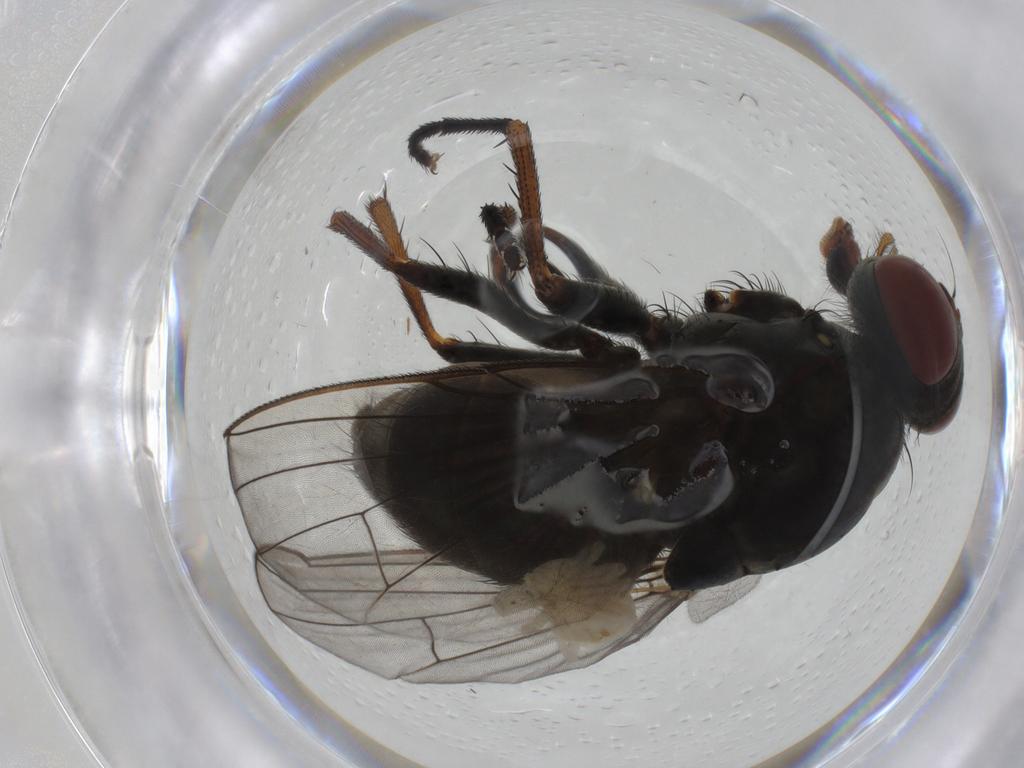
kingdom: Animalia
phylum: Arthropoda
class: Insecta
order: Diptera
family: Muscidae
